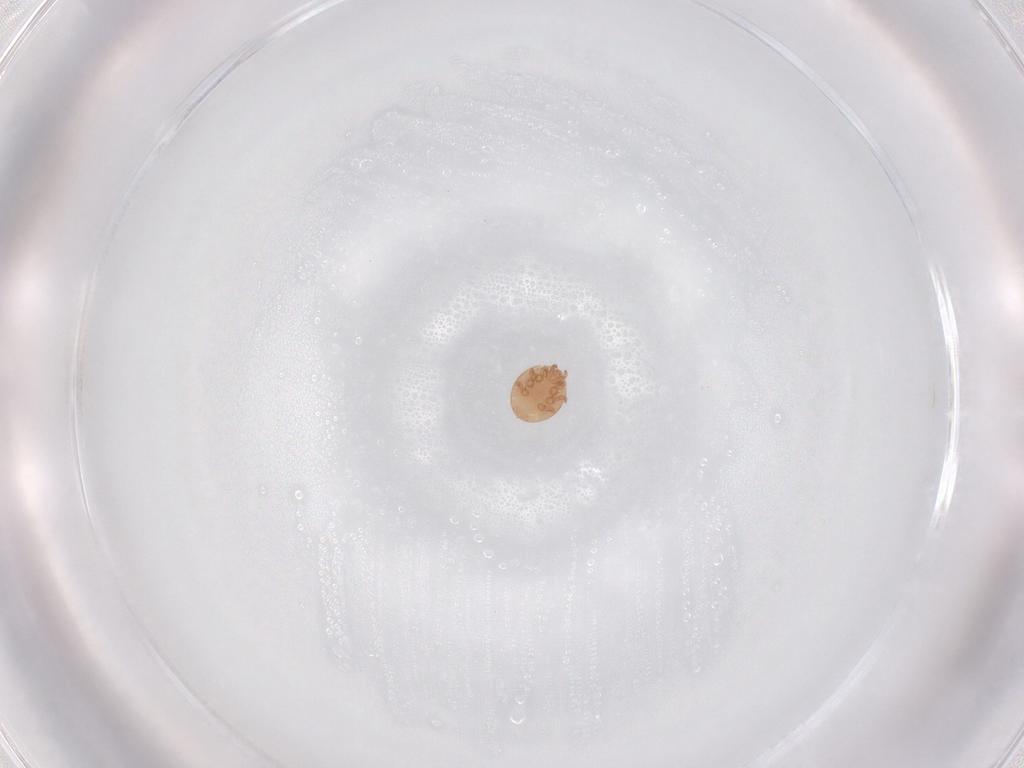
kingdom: Animalia
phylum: Arthropoda
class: Arachnida
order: Mesostigmata
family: Trematuridae
